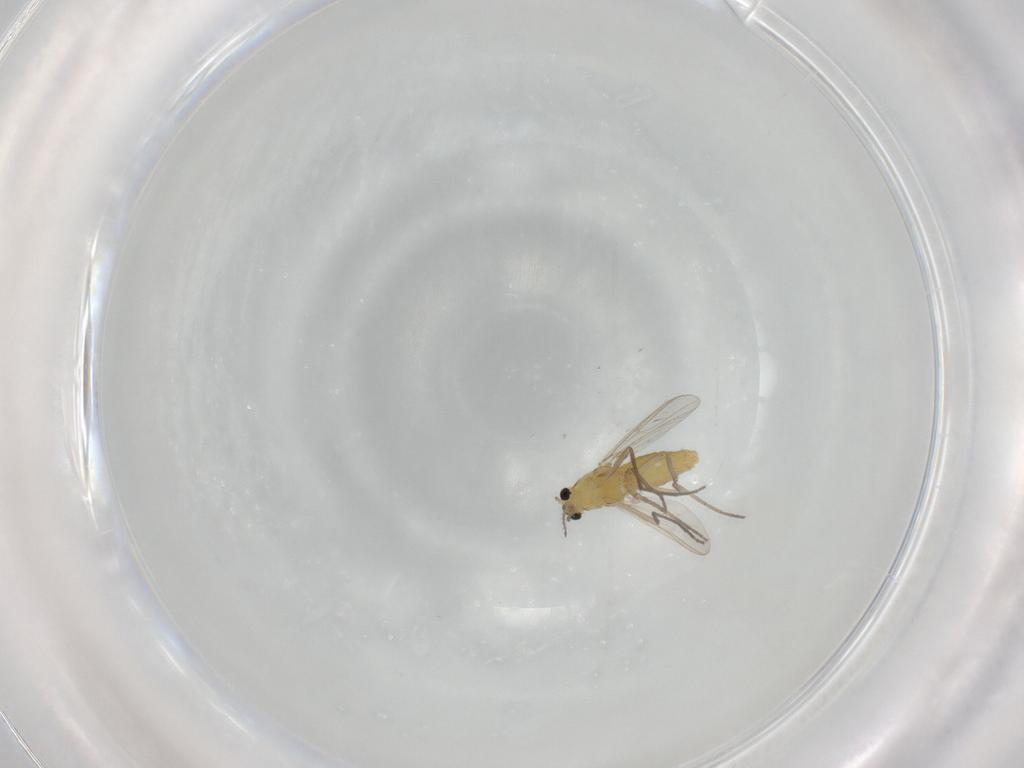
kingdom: Animalia
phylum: Arthropoda
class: Insecta
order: Diptera
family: Chironomidae
